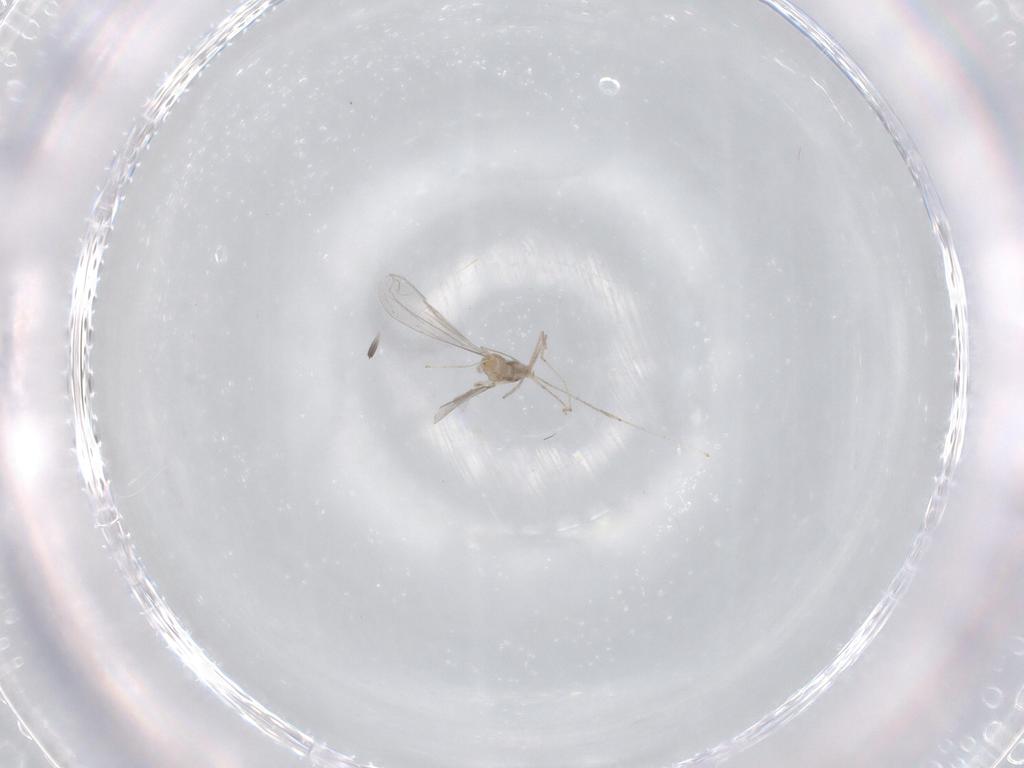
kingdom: Animalia
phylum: Arthropoda
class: Insecta
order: Diptera
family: Cecidomyiidae
